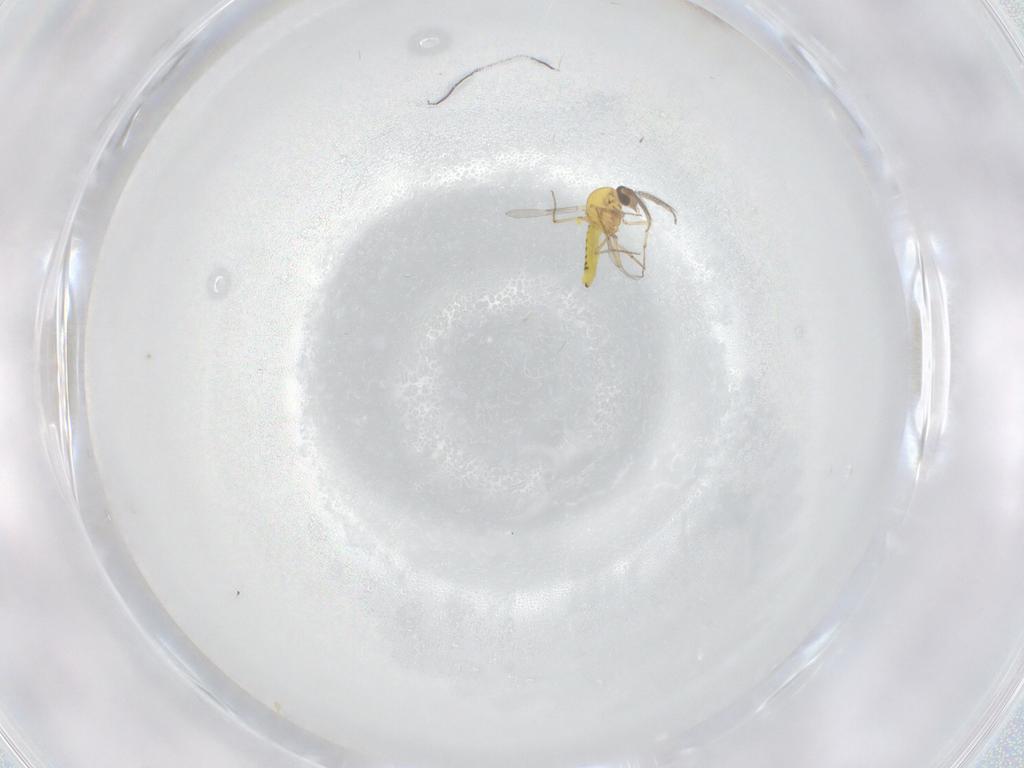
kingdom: Animalia
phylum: Arthropoda
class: Insecta
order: Diptera
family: Ceratopogonidae
